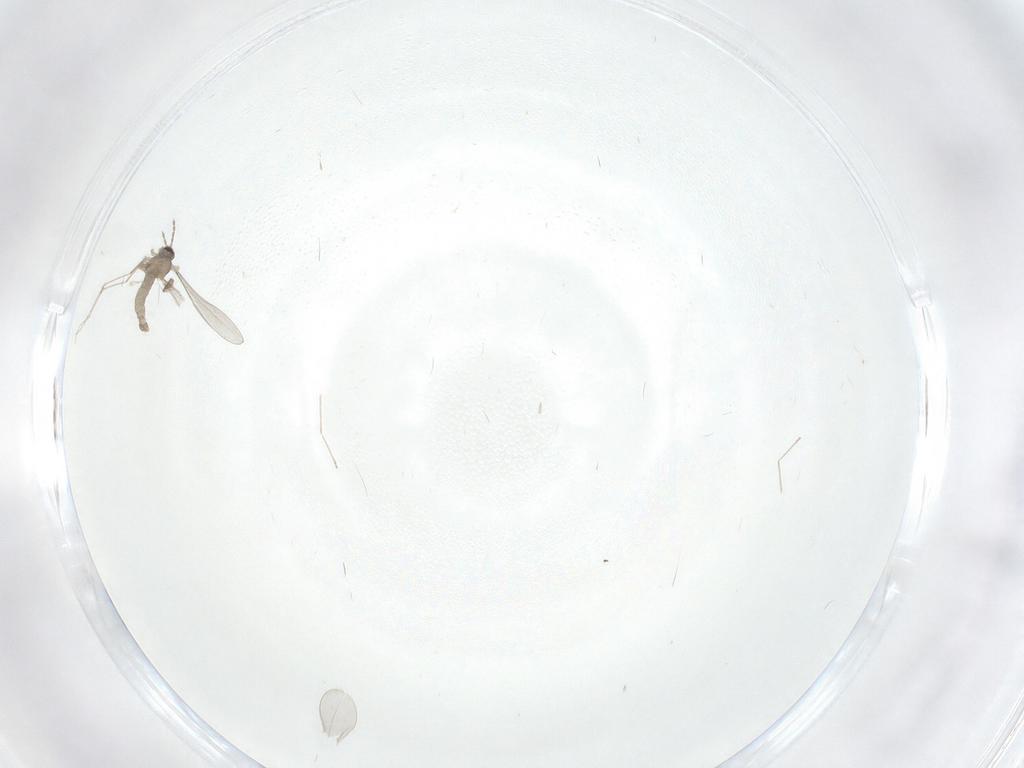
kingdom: Animalia
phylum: Arthropoda
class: Insecta
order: Diptera
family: Cecidomyiidae
